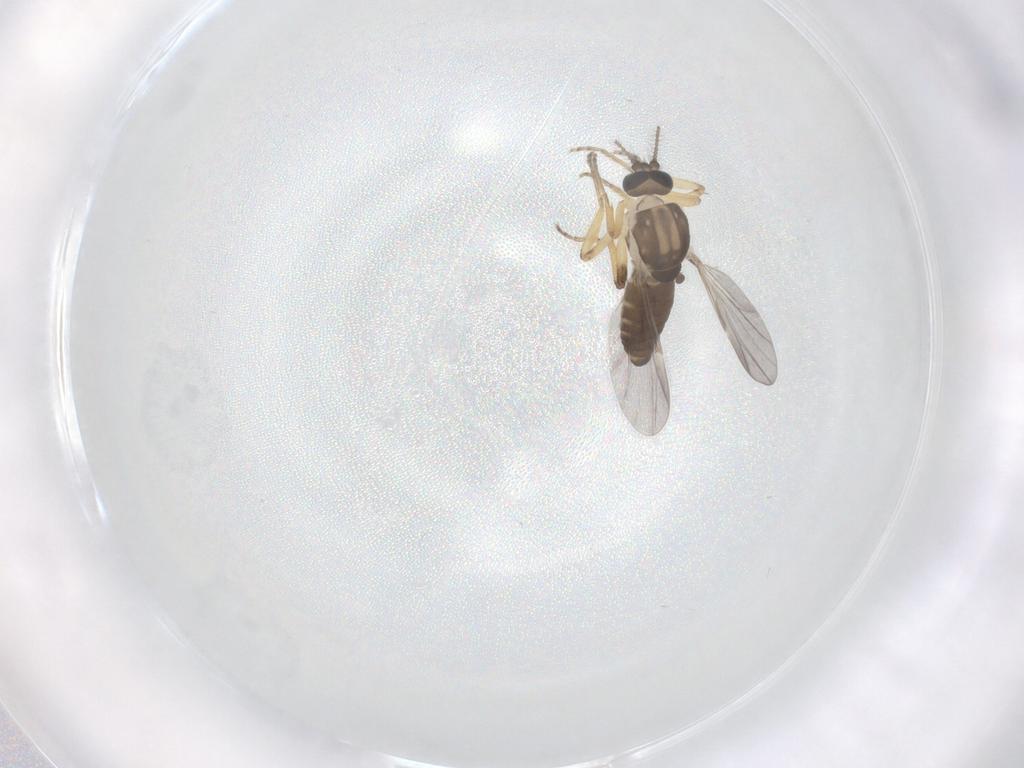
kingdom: Animalia
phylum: Arthropoda
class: Insecta
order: Diptera
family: Ceratopogonidae
